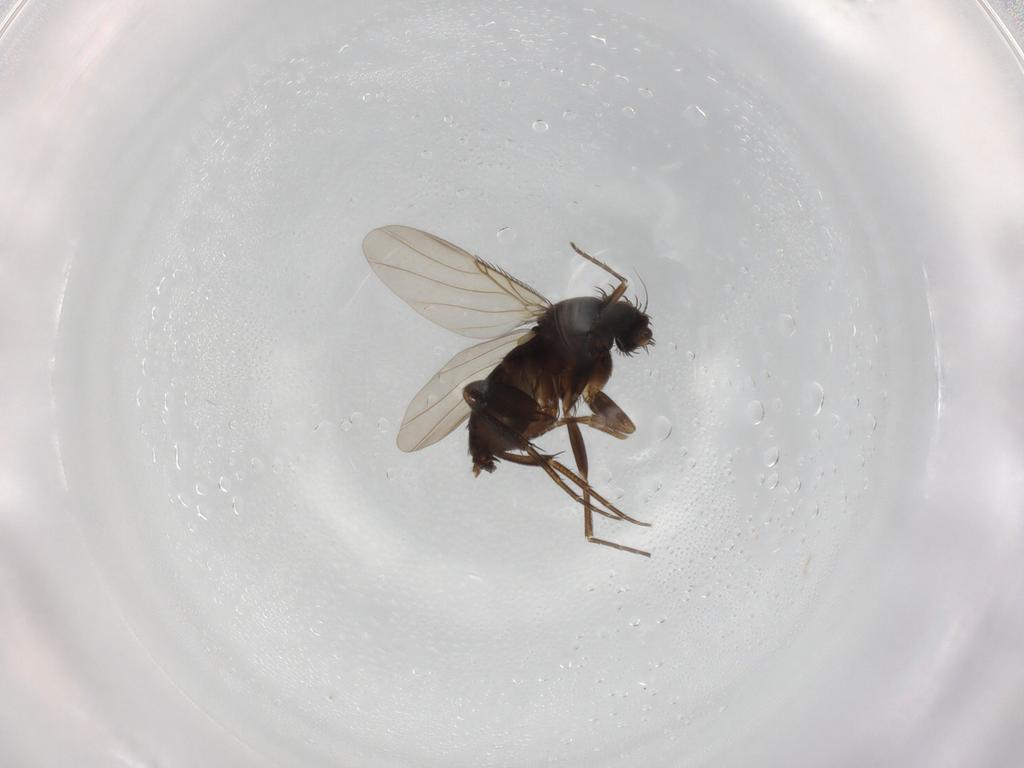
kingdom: Animalia
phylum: Arthropoda
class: Insecta
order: Diptera
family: Phoridae
